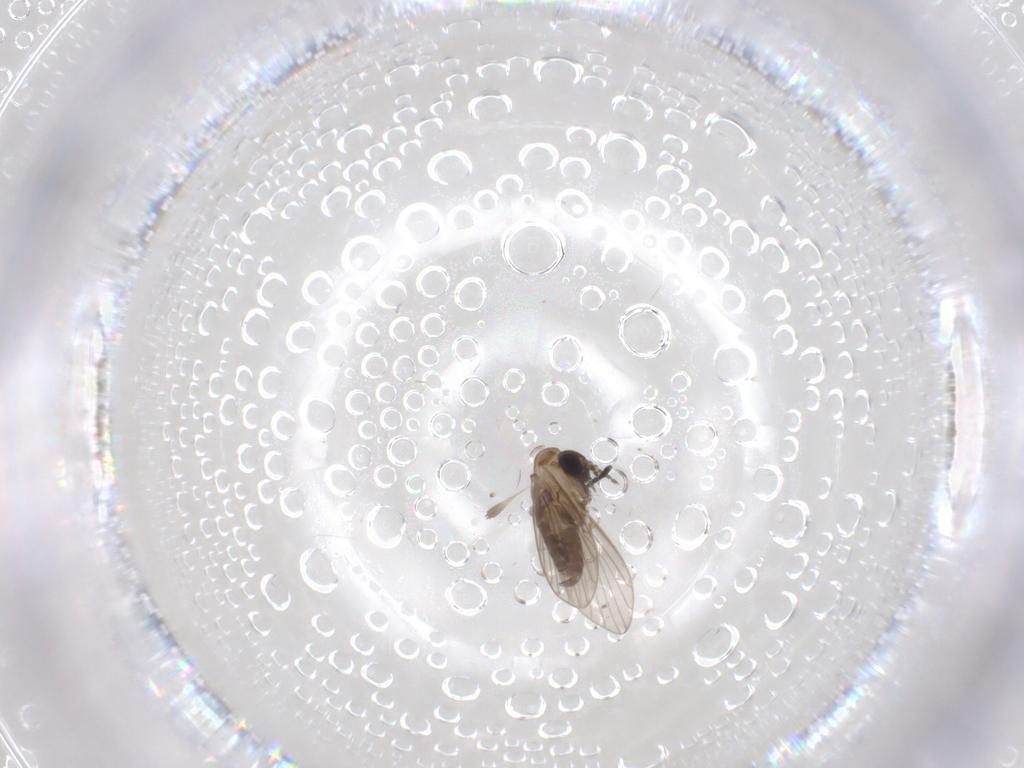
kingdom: Animalia
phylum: Arthropoda
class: Insecta
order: Diptera
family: Psychodidae
